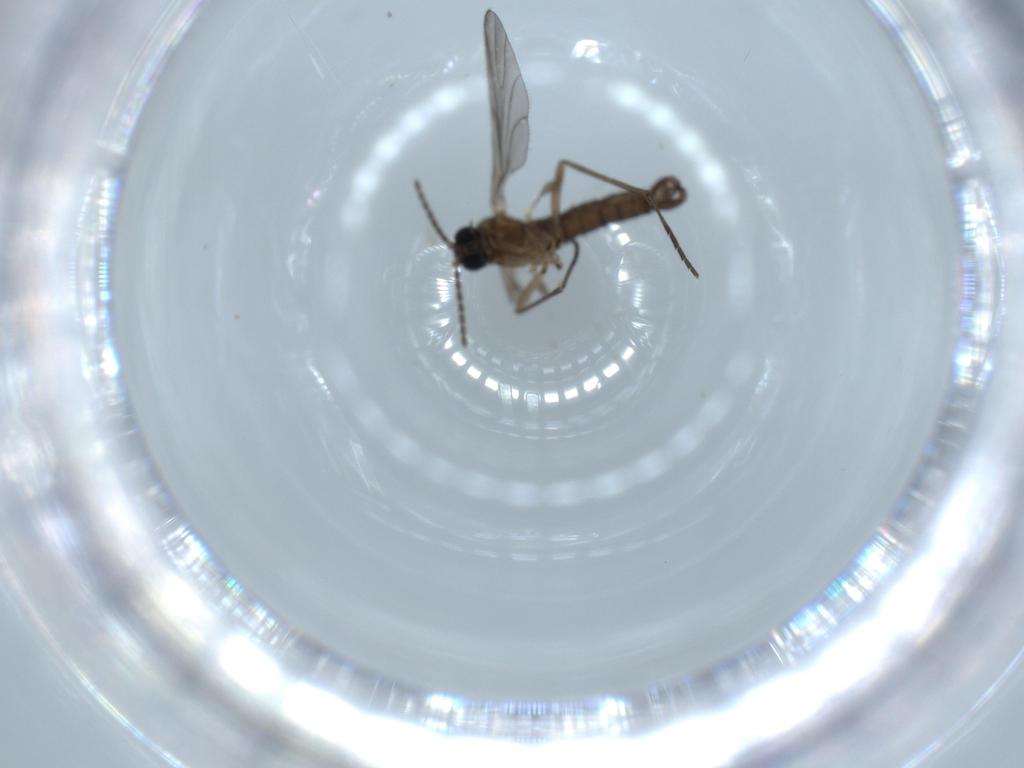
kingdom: Animalia
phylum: Arthropoda
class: Insecta
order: Diptera
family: Sciaridae
